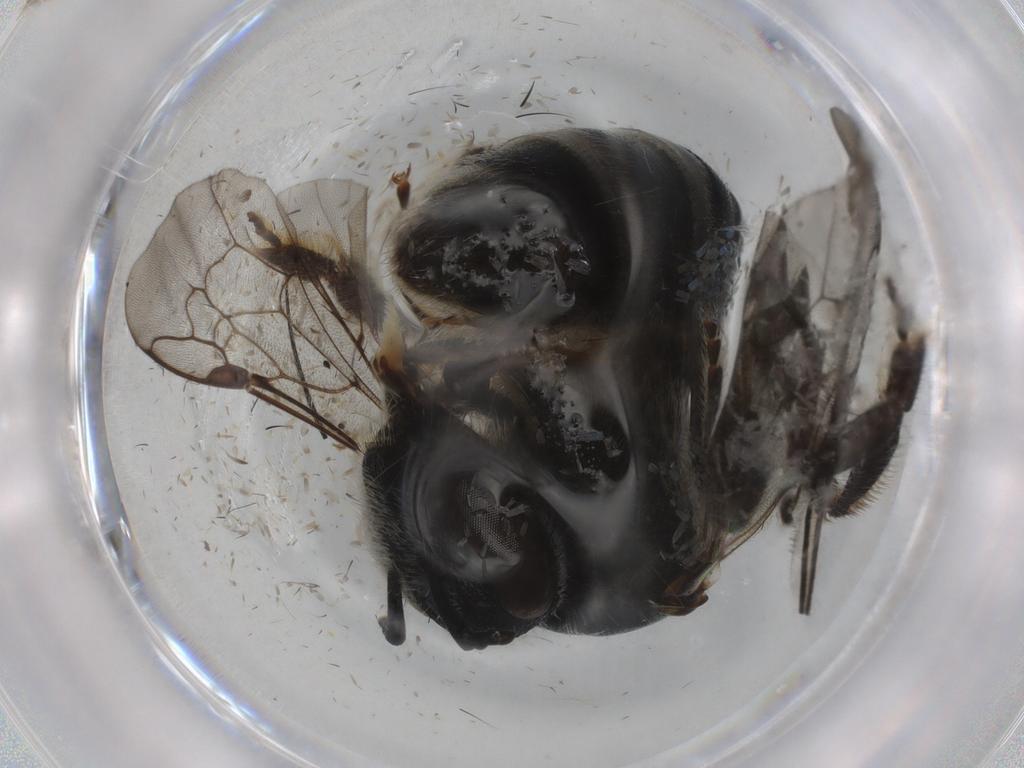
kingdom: Animalia
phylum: Arthropoda
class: Insecta
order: Hymenoptera
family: Halictidae
